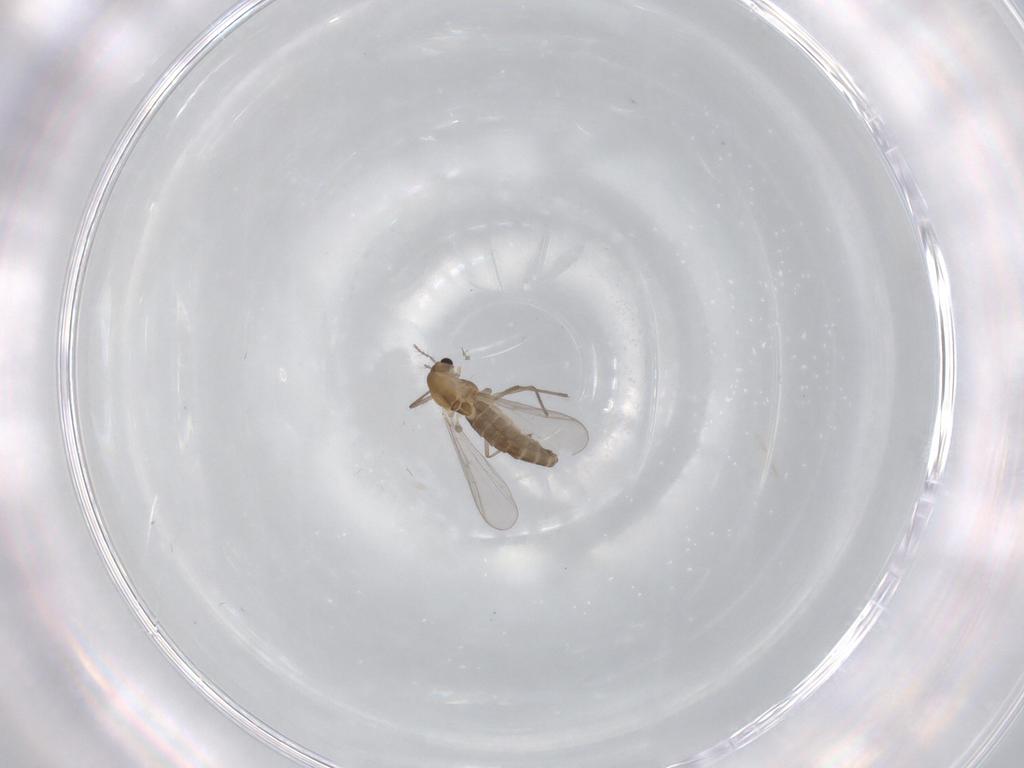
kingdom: Animalia
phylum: Arthropoda
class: Insecta
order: Diptera
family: Chironomidae
